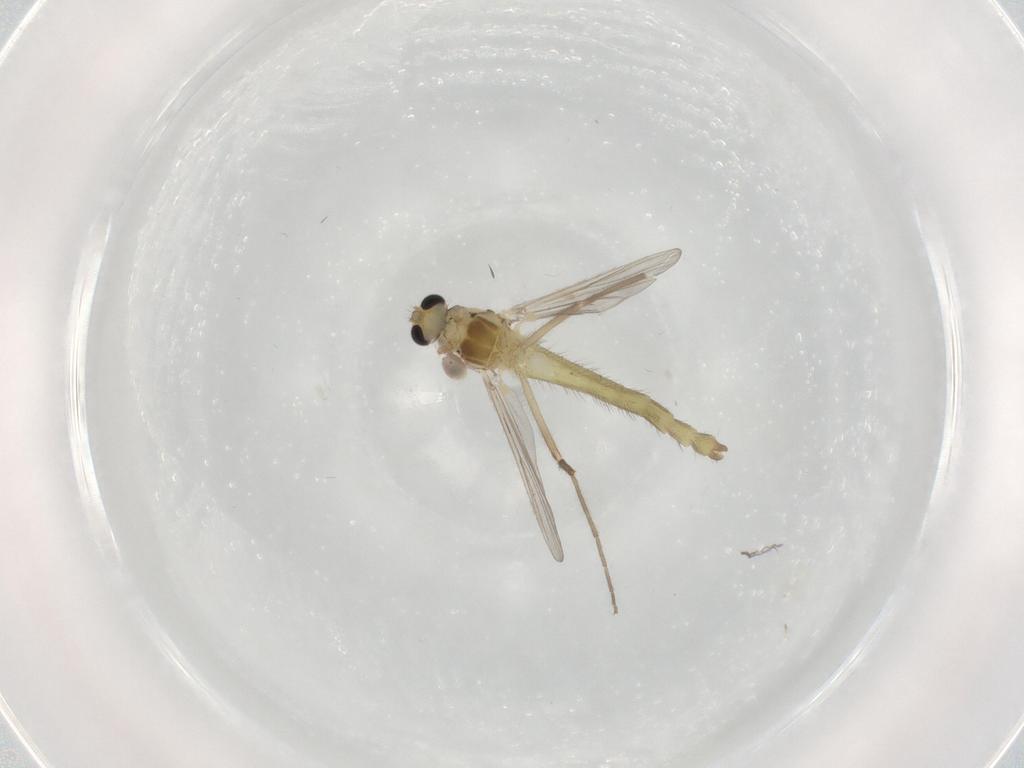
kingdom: Animalia
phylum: Arthropoda
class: Insecta
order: Diptera
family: Chironomidae
